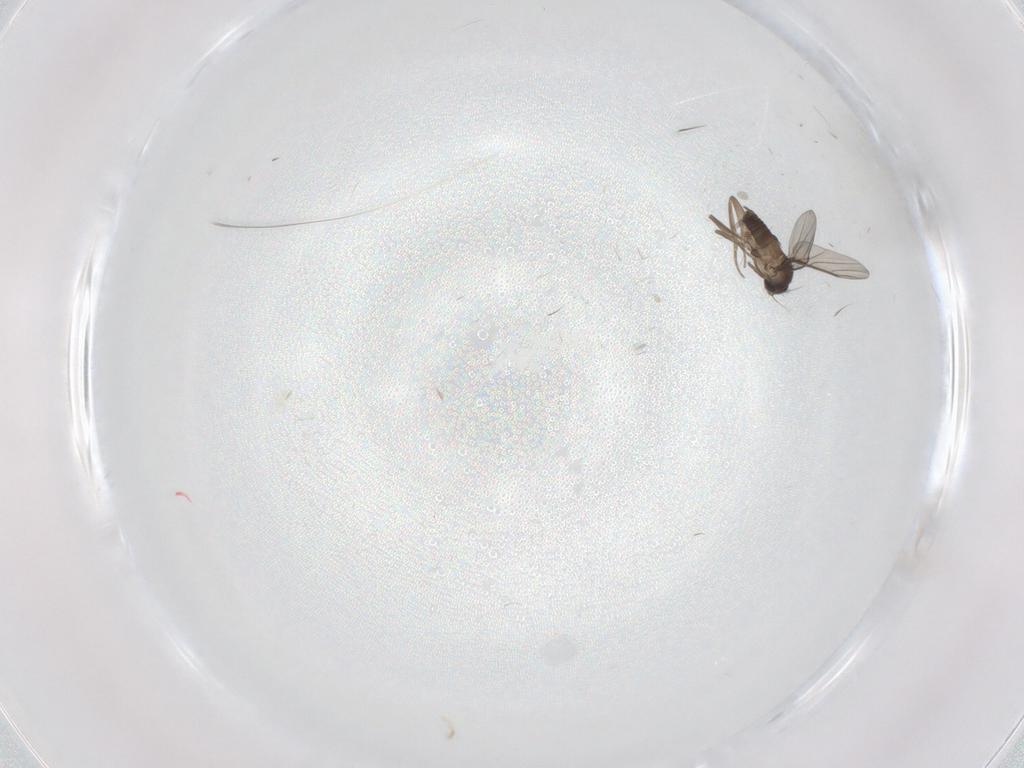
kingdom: Animalia
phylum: Arthropoda
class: Insecta
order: Diptera
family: Phoridae
